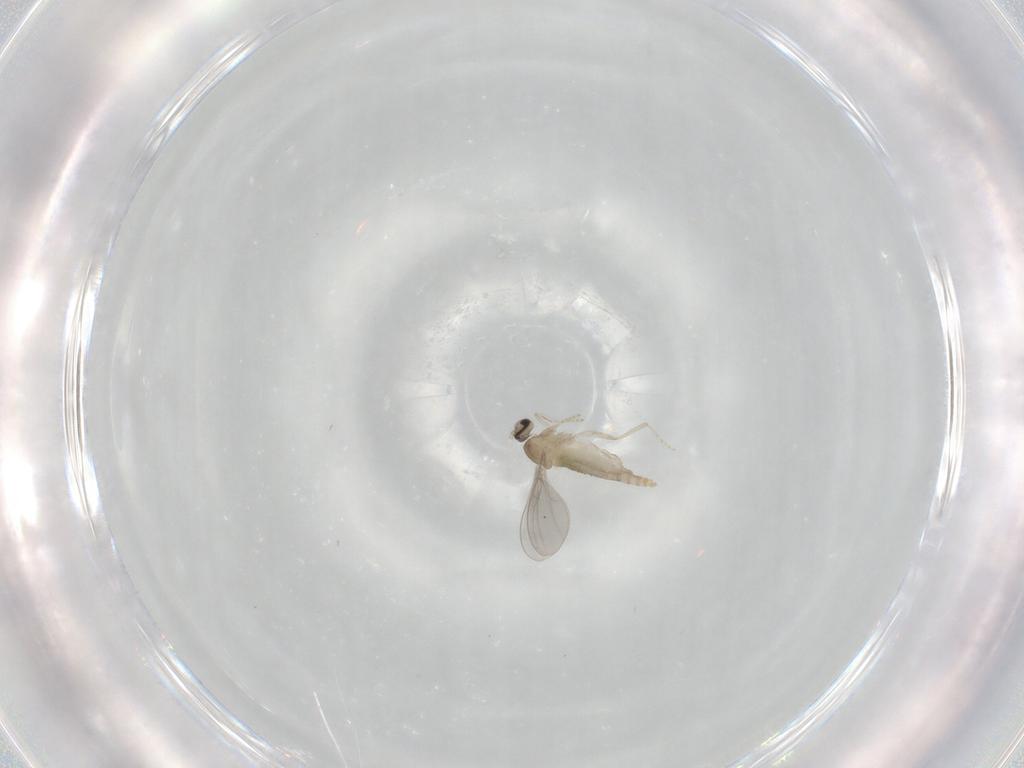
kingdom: Animalia
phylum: Arthropoda
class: Insecta
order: Diptera
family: Cecidomyiidae
